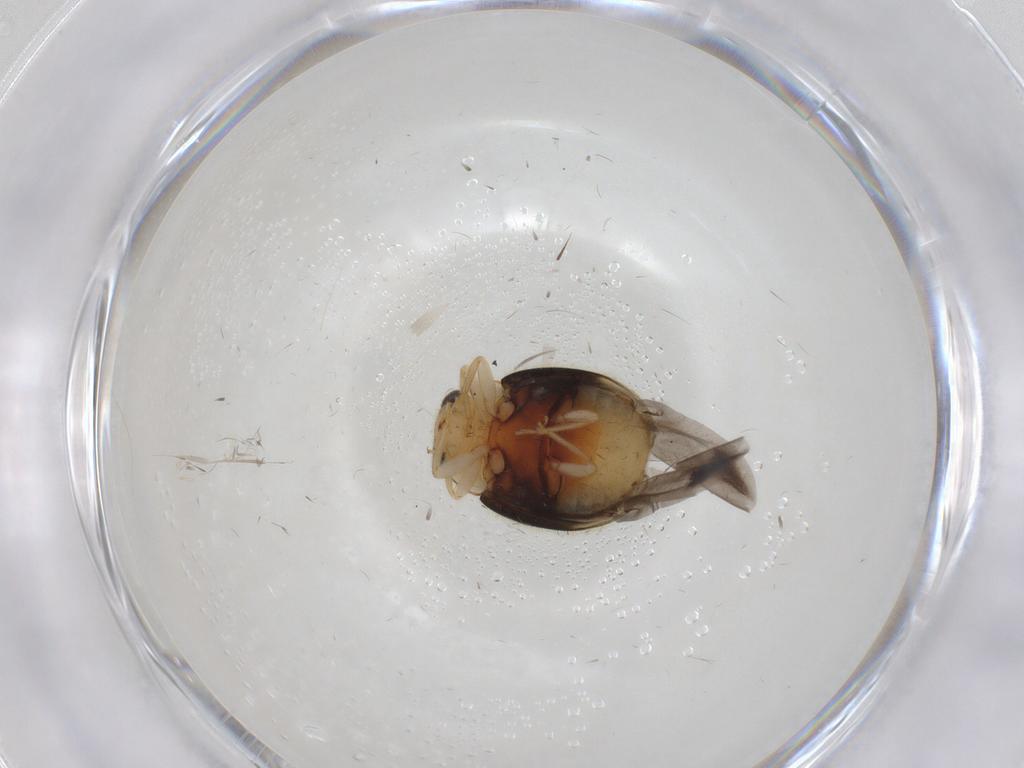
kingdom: Animalia
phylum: Arthropoda
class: Insecta
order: Coleoptera
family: Coccinellidae
